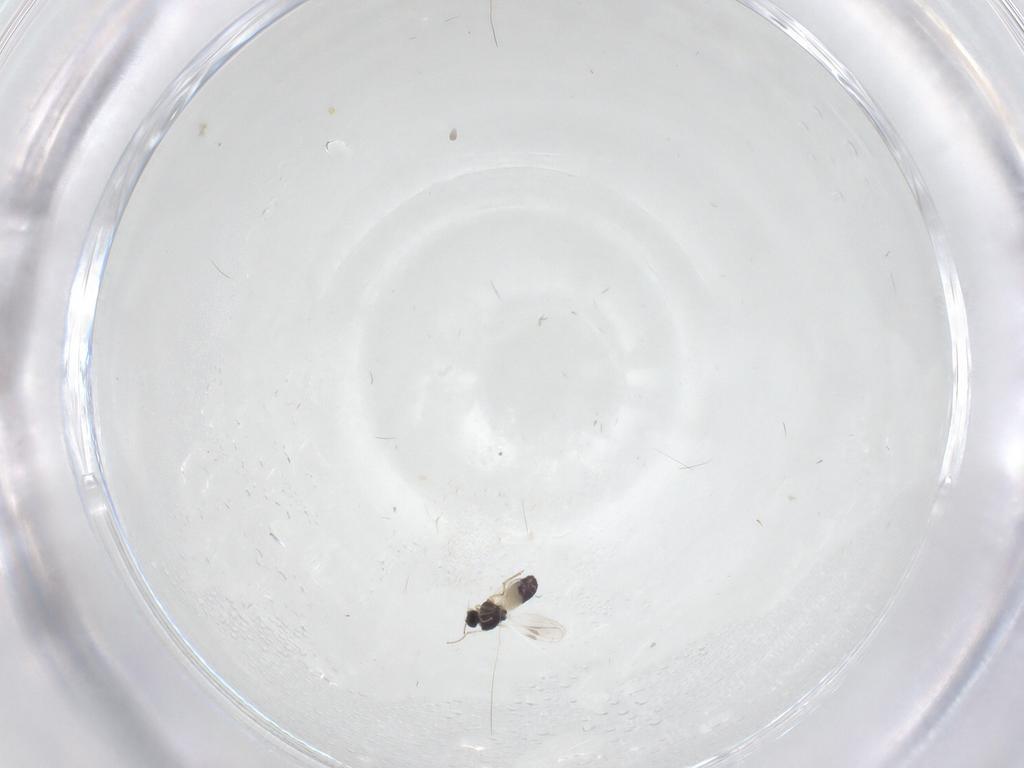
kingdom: Animalia
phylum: Arthropoda
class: Insecta
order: Diptera
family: Chironomidae
